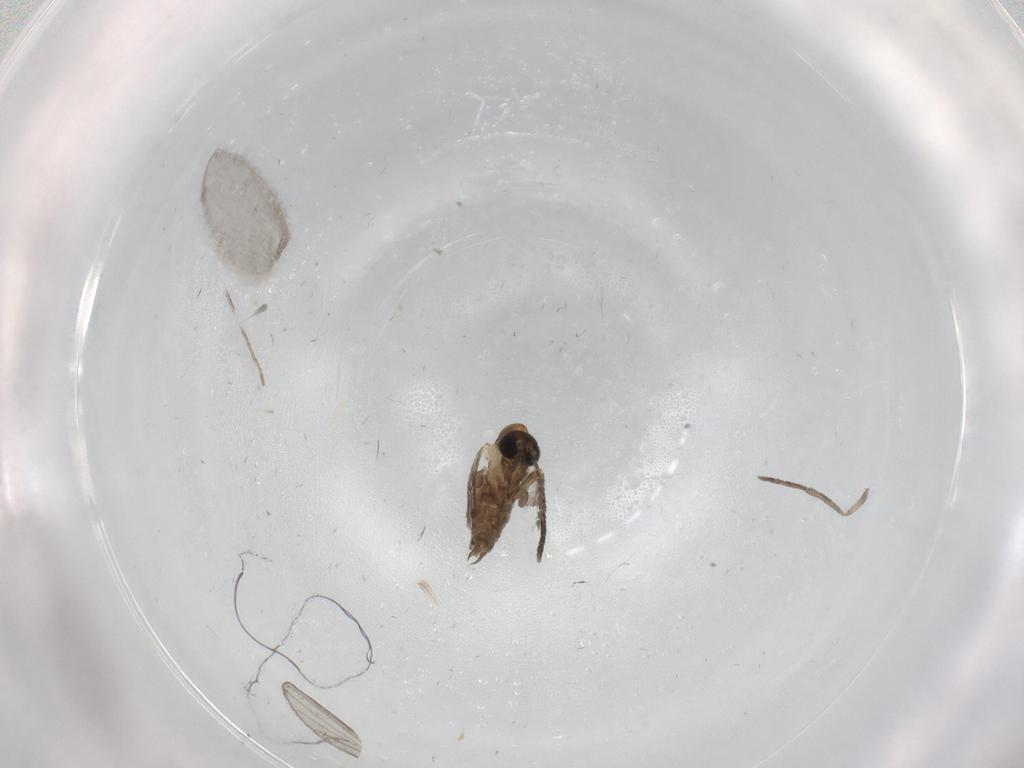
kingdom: Animalia
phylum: Arthropoda
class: Insecta
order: Diptera
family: Psychodidae
